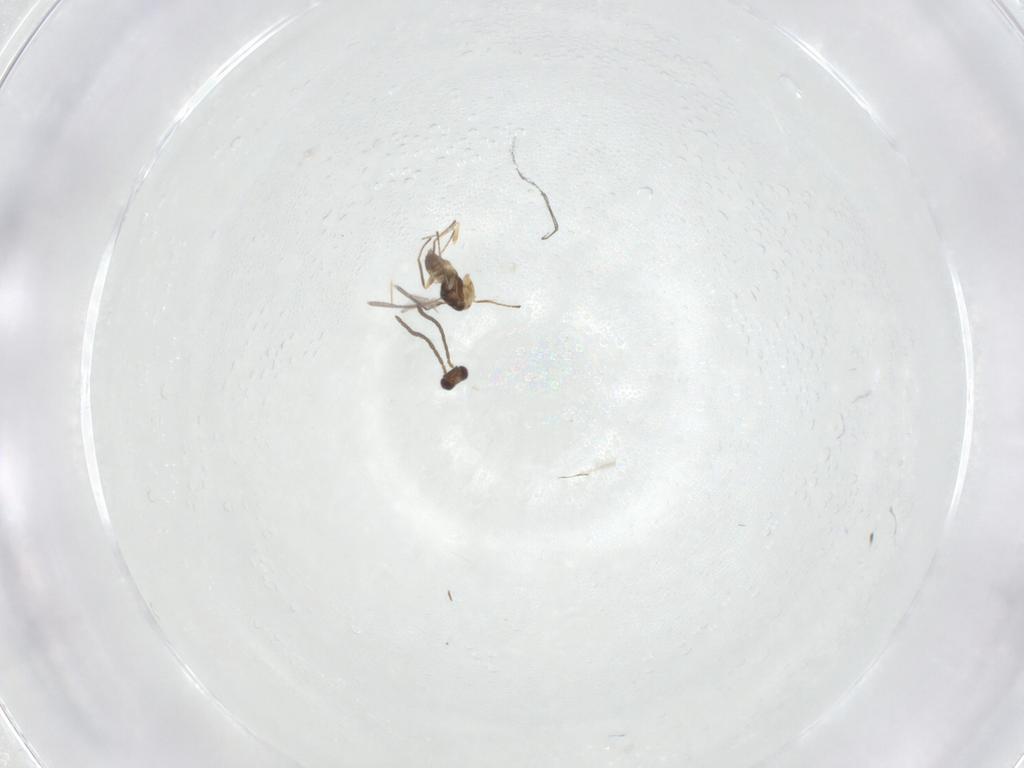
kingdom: Animalia
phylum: Arthropoda
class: Insecta
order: Hymenoptera
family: Mymaridae
